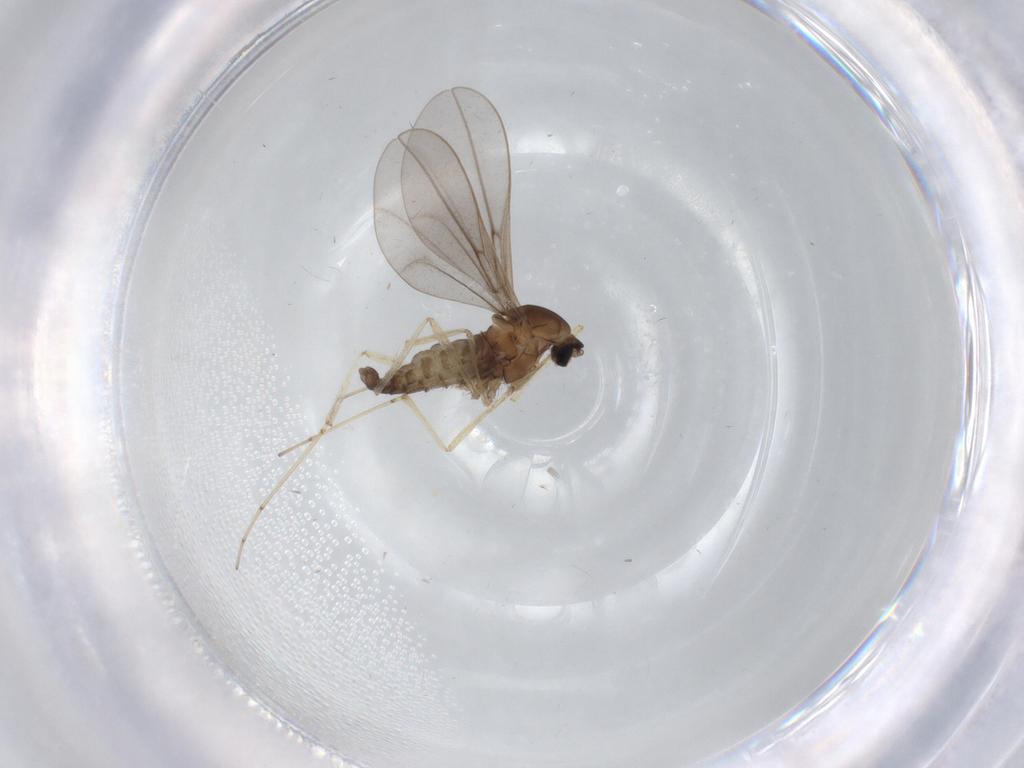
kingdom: Animalia
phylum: Arthropoda
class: Insecta
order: Diptera
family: Cecidomyiidae
